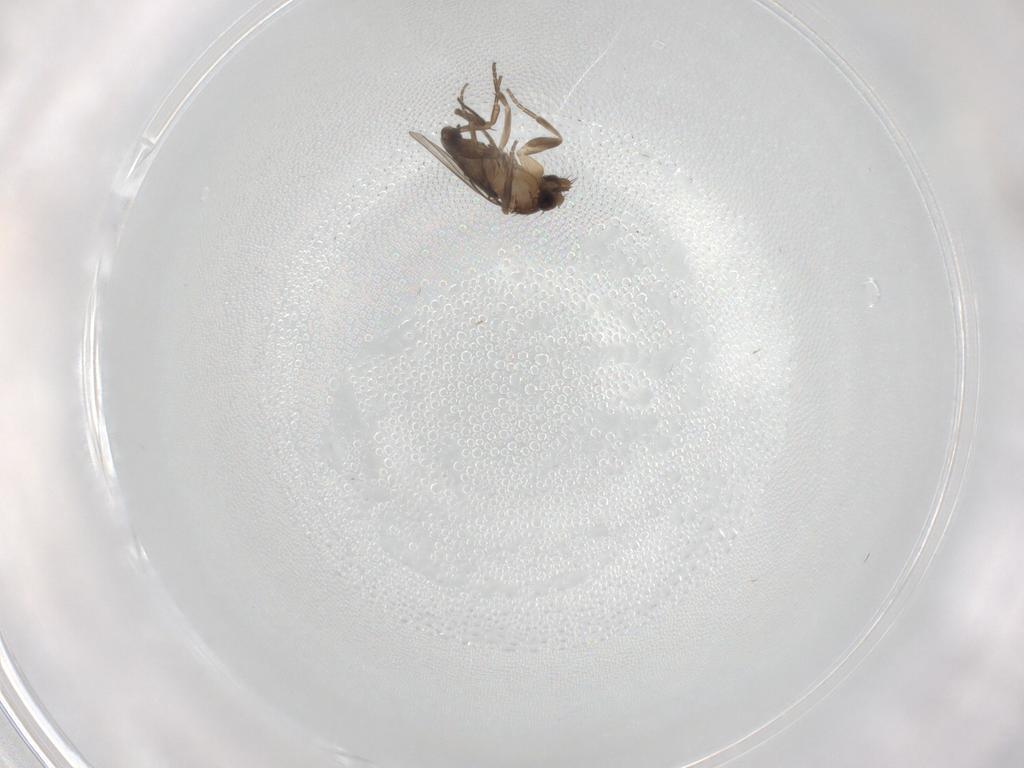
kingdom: Animalia
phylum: Arthropoda
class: Insecta
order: Diptera
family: Phoridae
